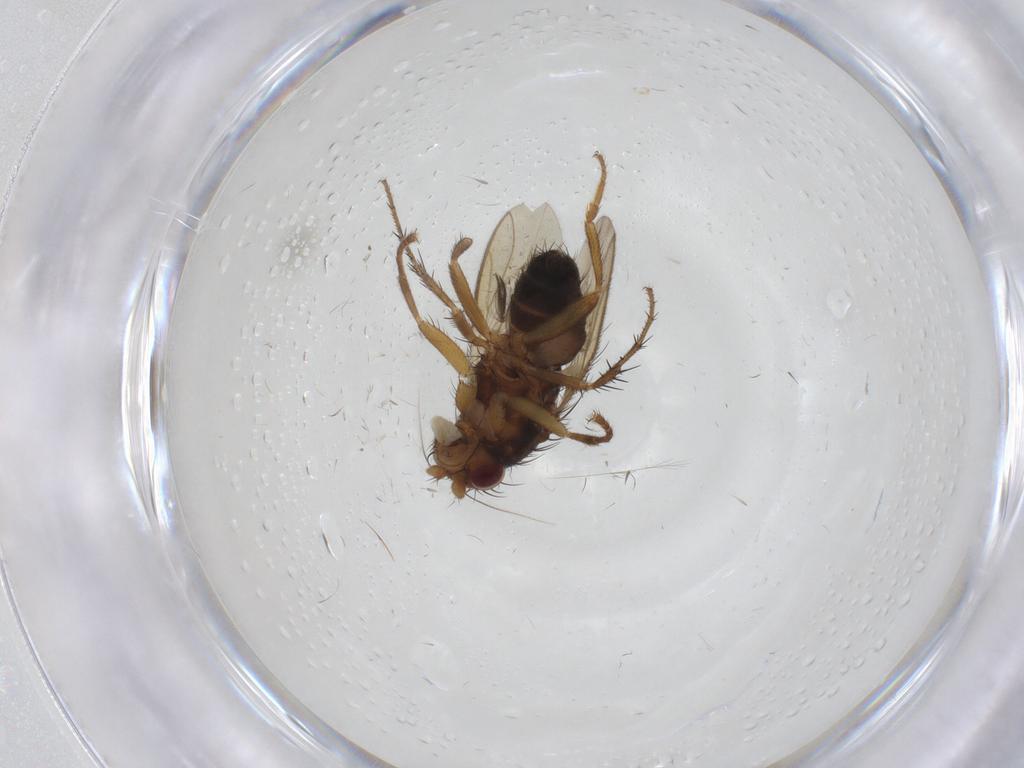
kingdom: Animalia
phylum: Arthropoda
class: Insecta
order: Diptera
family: Sphaeroceridae
